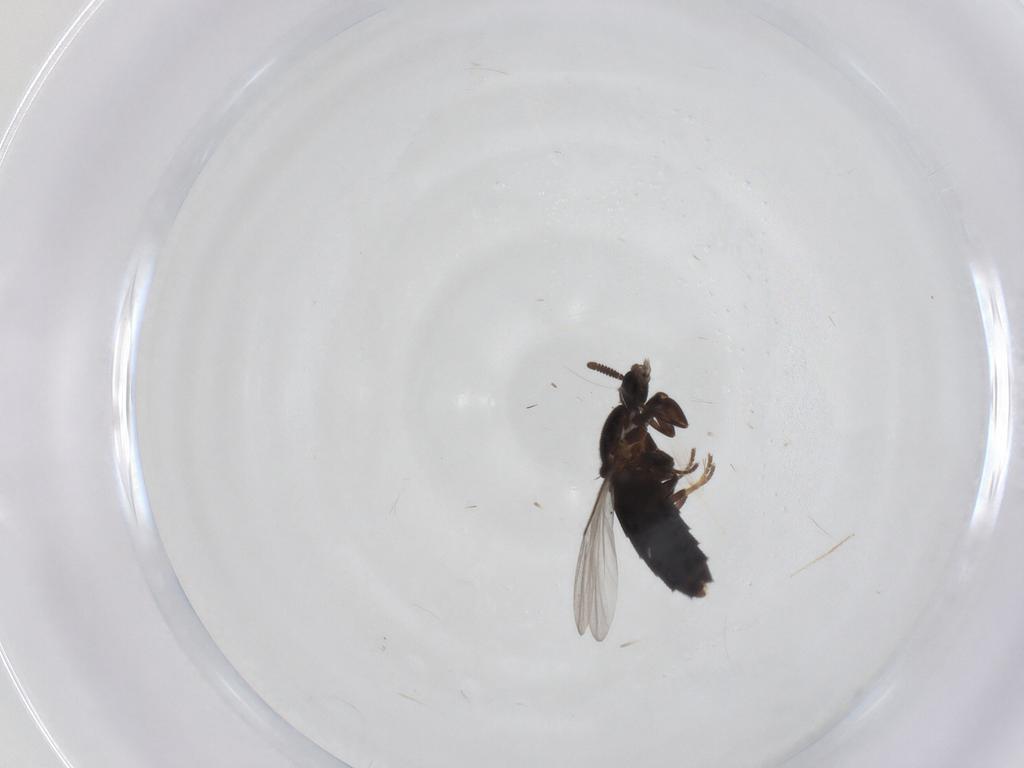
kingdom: Animalia
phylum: Arthropoda
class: Insecta
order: Diptera
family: Scatopsidae
